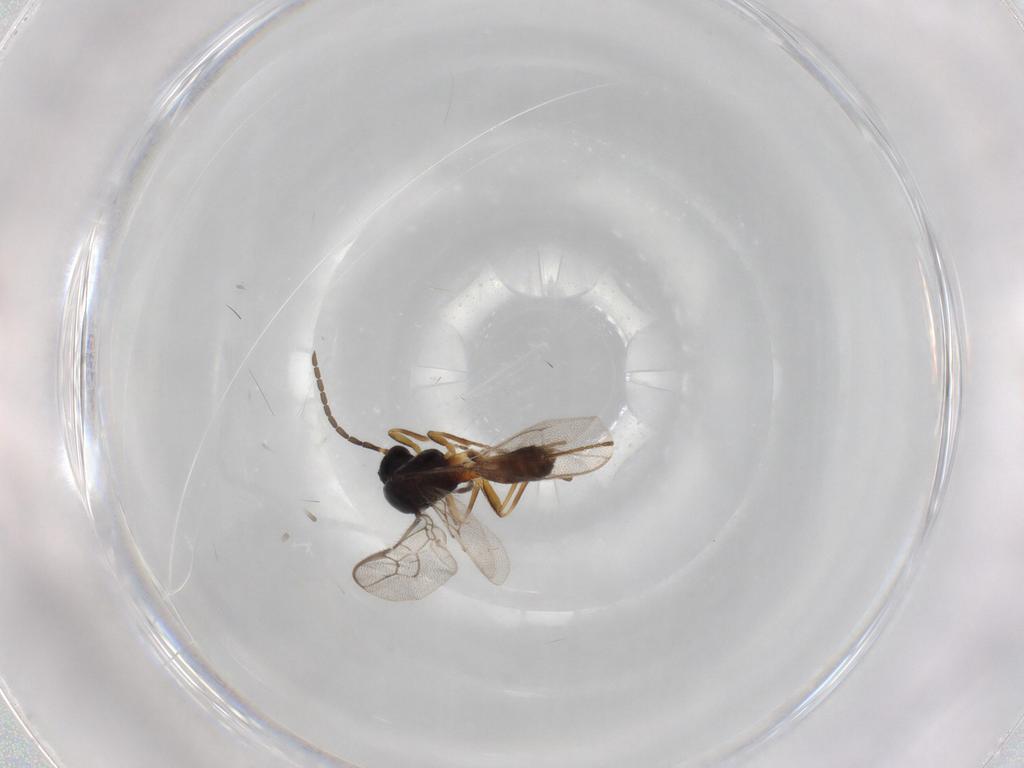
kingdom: Animalia
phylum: Arthropoda
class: Insecta
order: Hymenoptera
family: Braconidae
